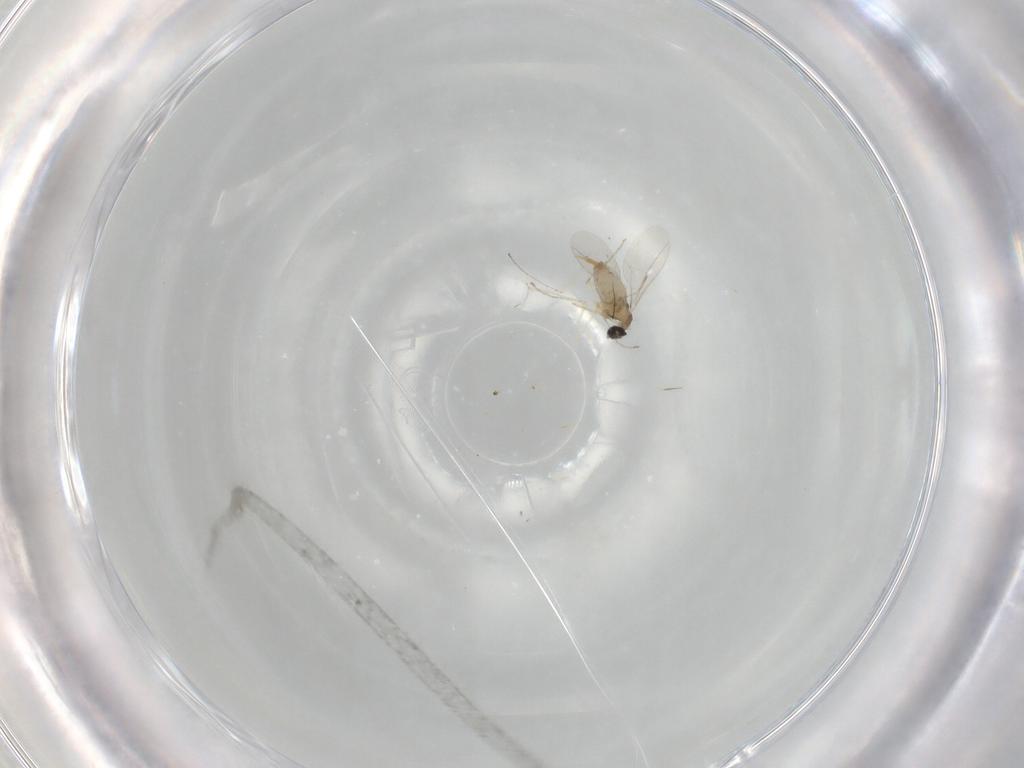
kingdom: Animalia
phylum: Arthropoda
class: Insecta
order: Diptera
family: Cecidomyiidae
